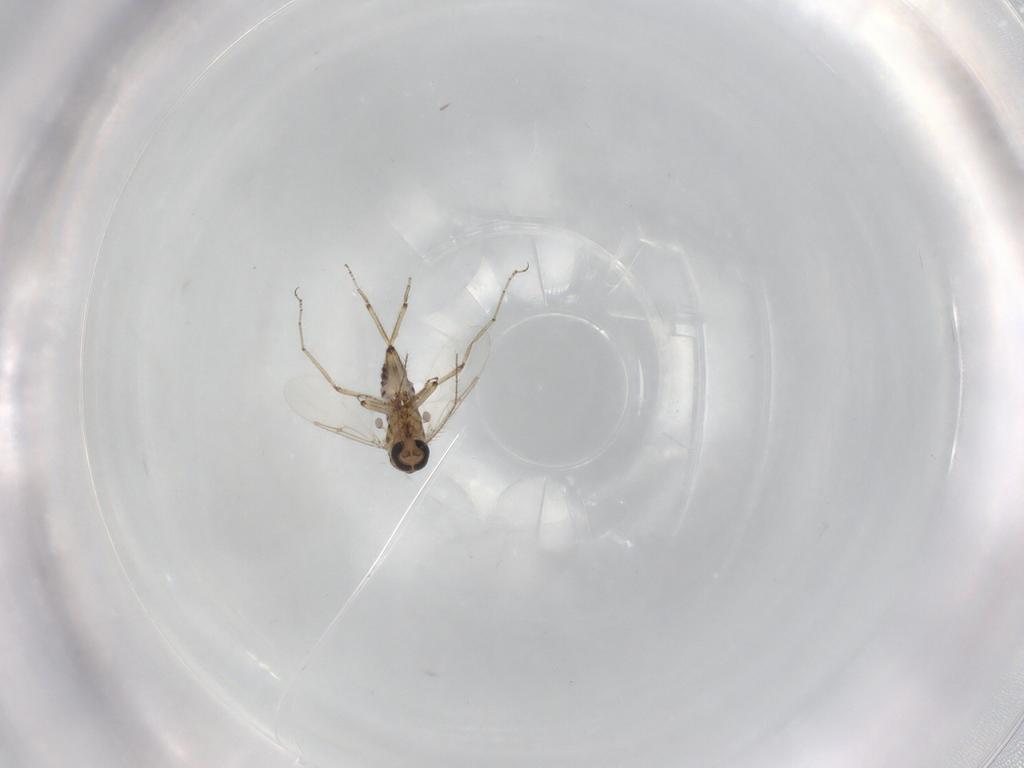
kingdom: Animalia
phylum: Arthropoda
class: Insecta
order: Diptera
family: Ceratopogonidae
